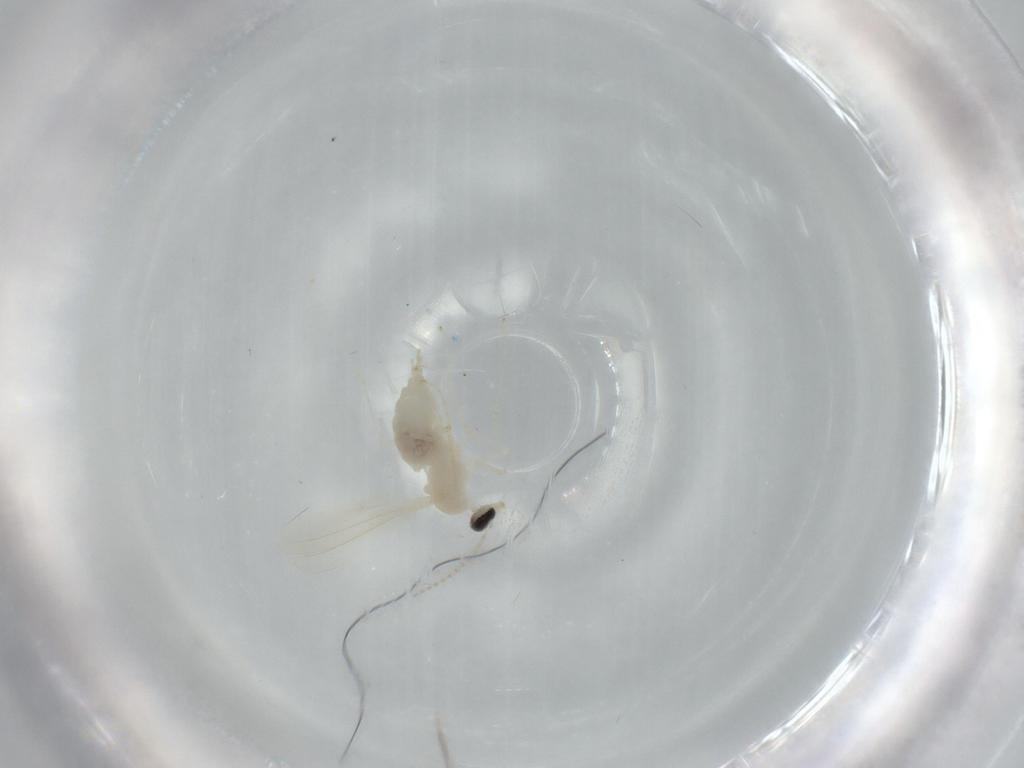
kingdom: Animalia
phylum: Arthropoda
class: Insecta
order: Diptera
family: Cecidomyiidae
